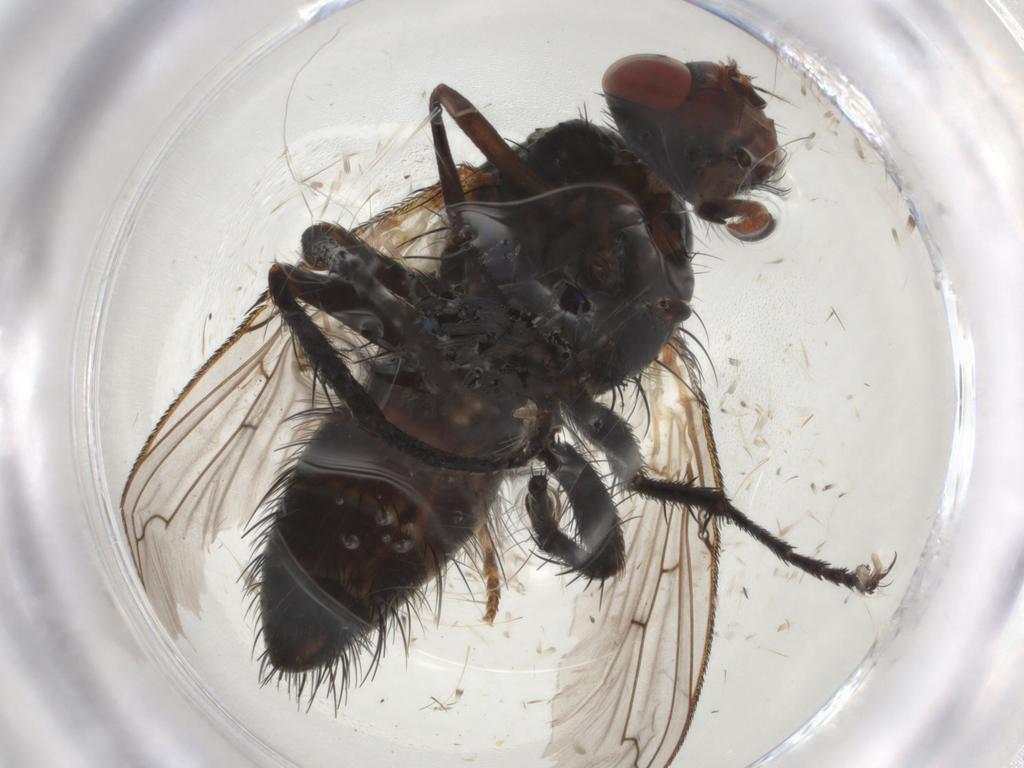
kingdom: Animalia
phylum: Arthropoda
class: Insecta
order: Diptera
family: Tachinidae
